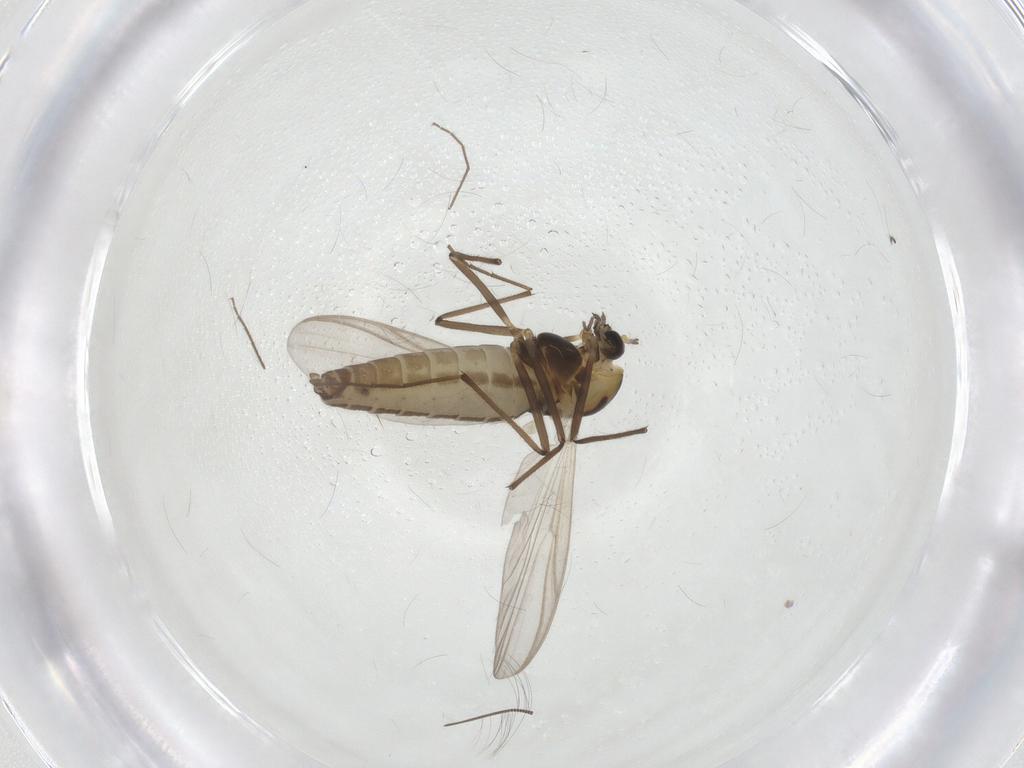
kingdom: Animalia
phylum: Arthropoda
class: Insecta
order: Diptera
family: Chironomidae
